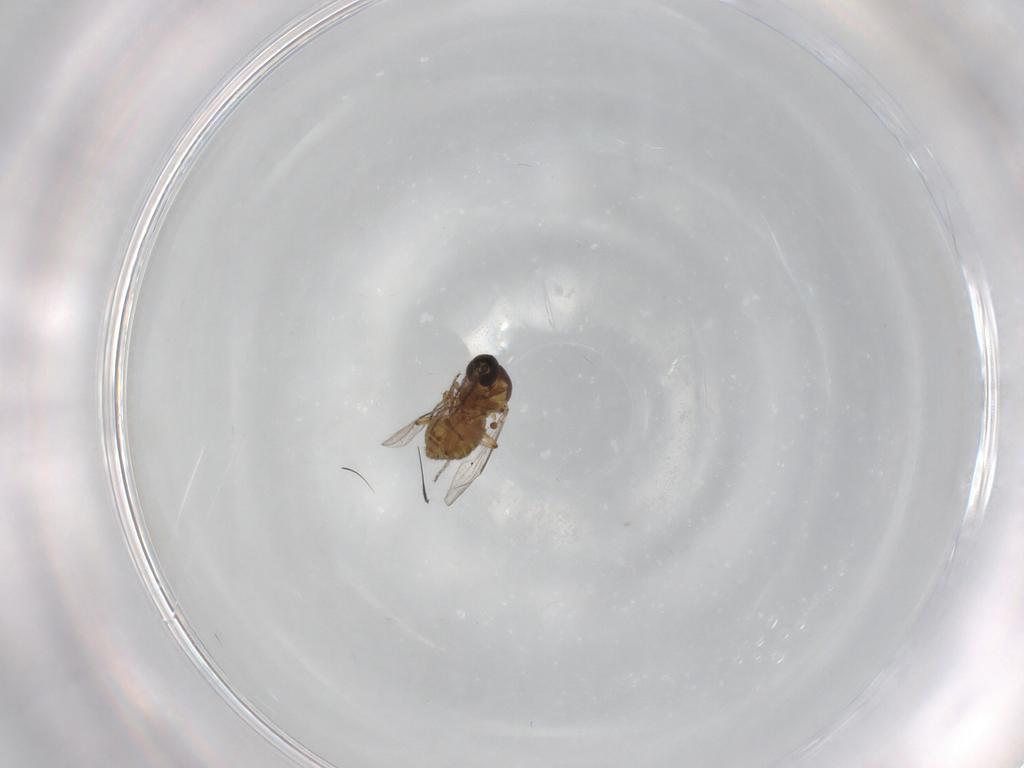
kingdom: Animalia
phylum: Arthropoda
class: Insecta
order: Diptera
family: Ceratopogonidae
